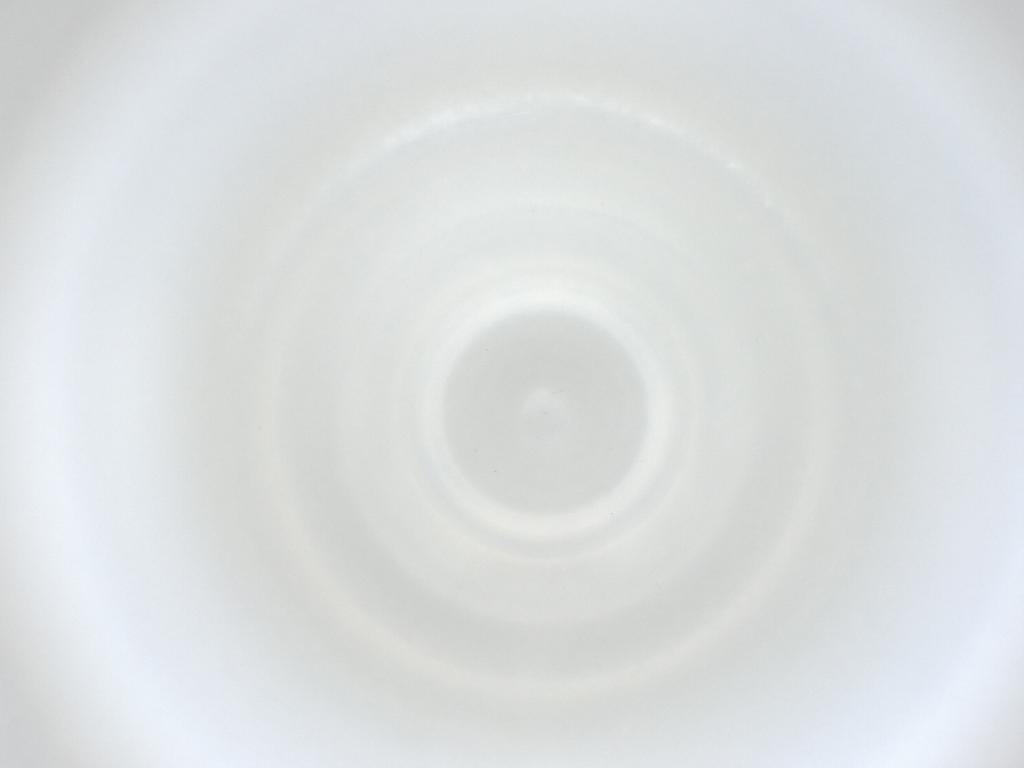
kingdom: Animalia
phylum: Arthropoda
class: Insecta
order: Diptera
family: Cecidomyiidae
